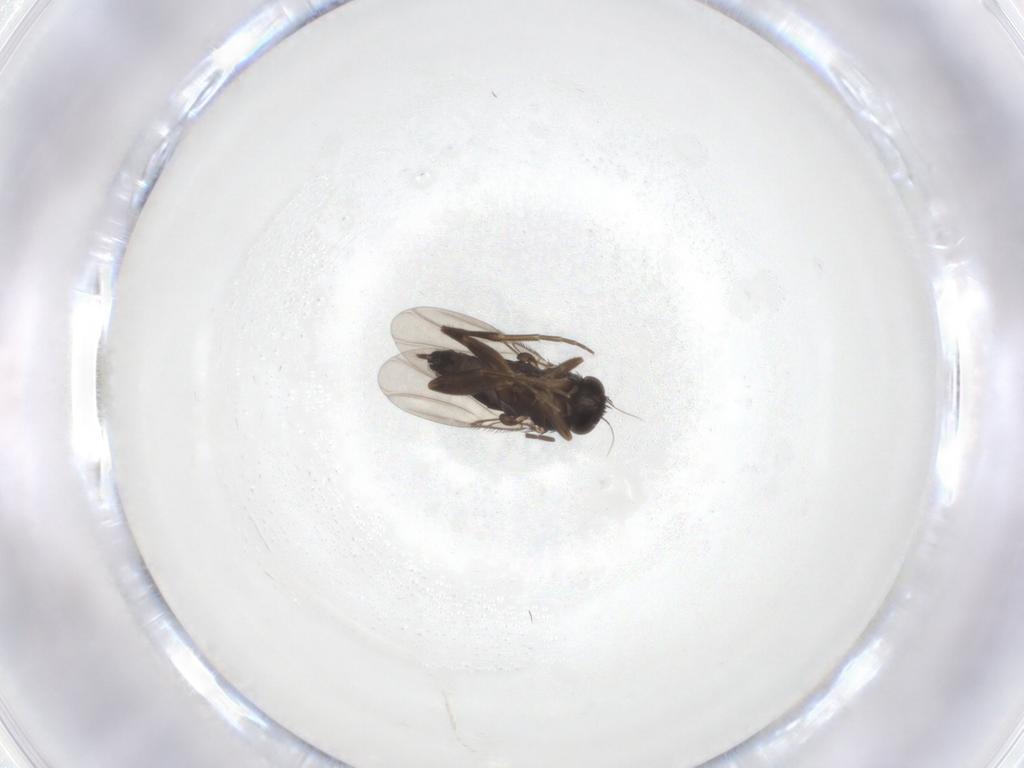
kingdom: Animalia
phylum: Arthropoda
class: Insecta
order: Diptera
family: Phoridae
